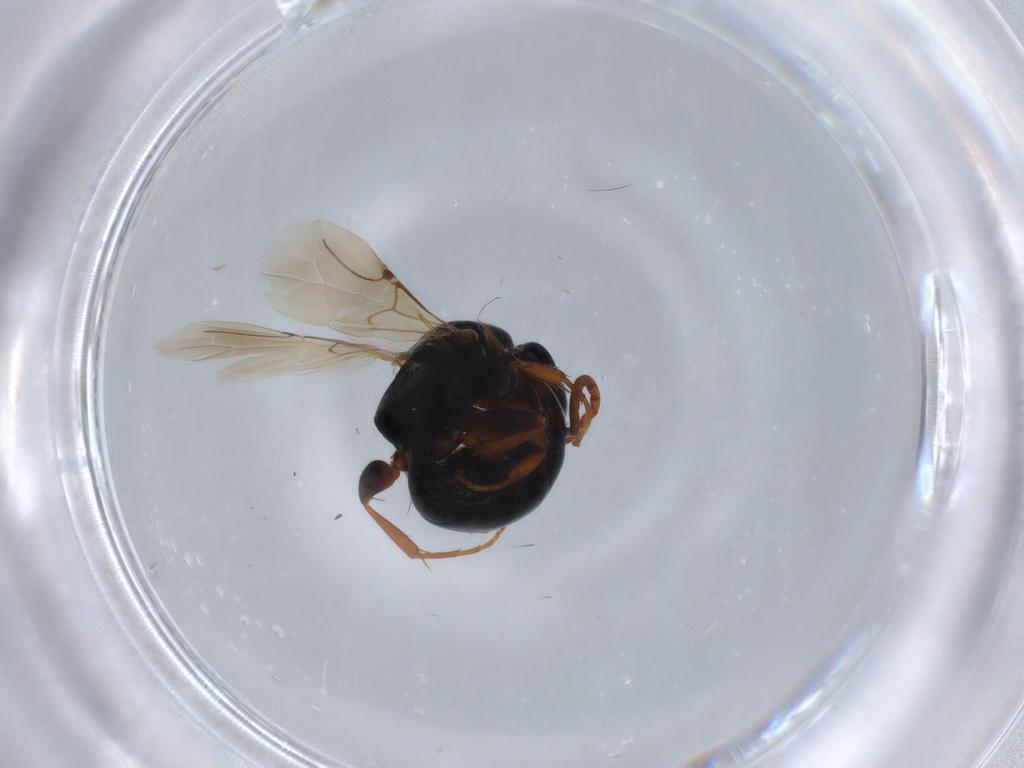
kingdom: Animalia
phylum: Arthropoda
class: Insecta
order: Hymenoptera
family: Bethylidae
